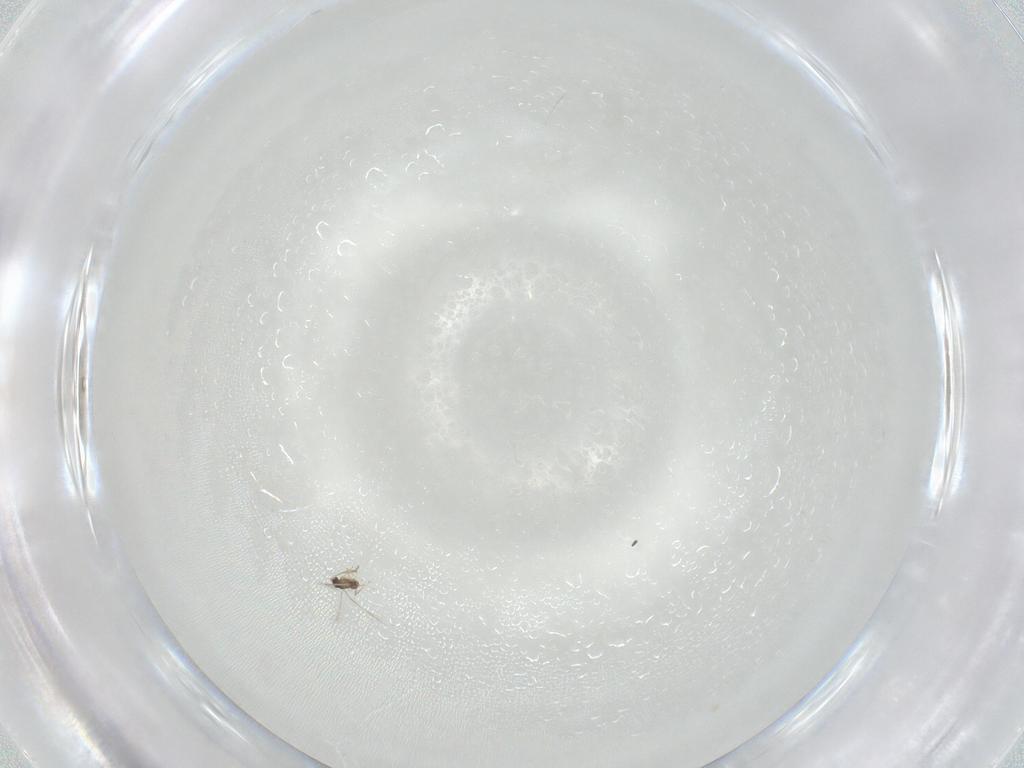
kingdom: Animalia
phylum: Arthropoda
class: Insecta
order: Hymenoptera
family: Scelionidae
